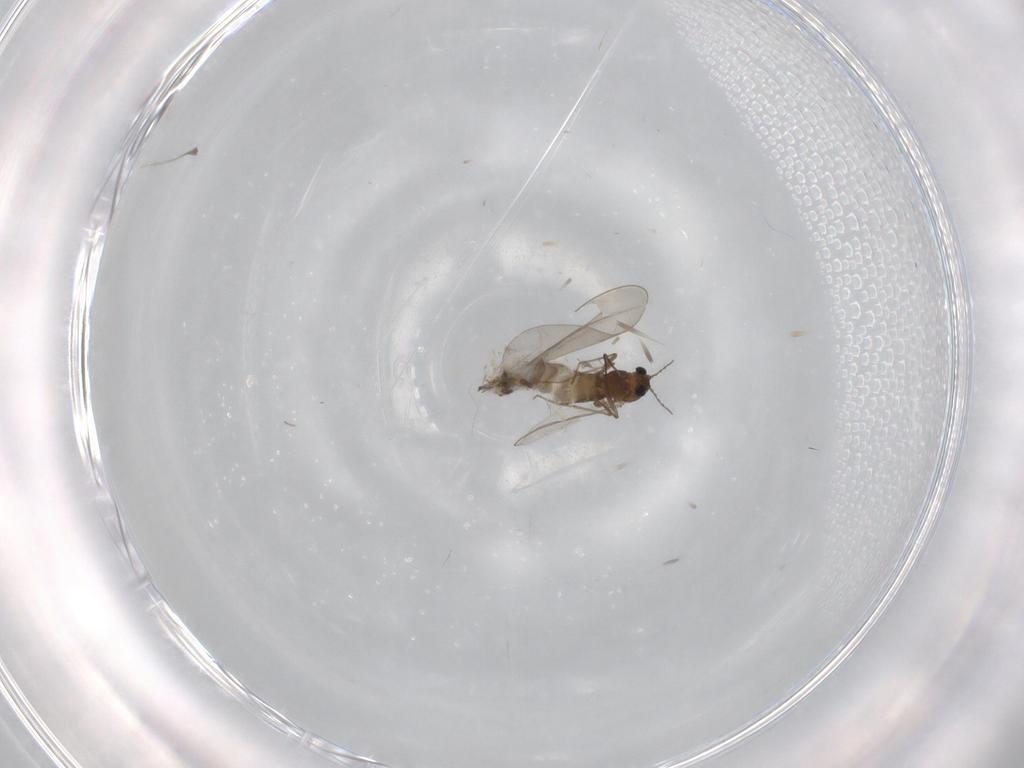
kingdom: Animalia
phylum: Arthropoda
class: Insecta
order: Diptera
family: Chironomidae
